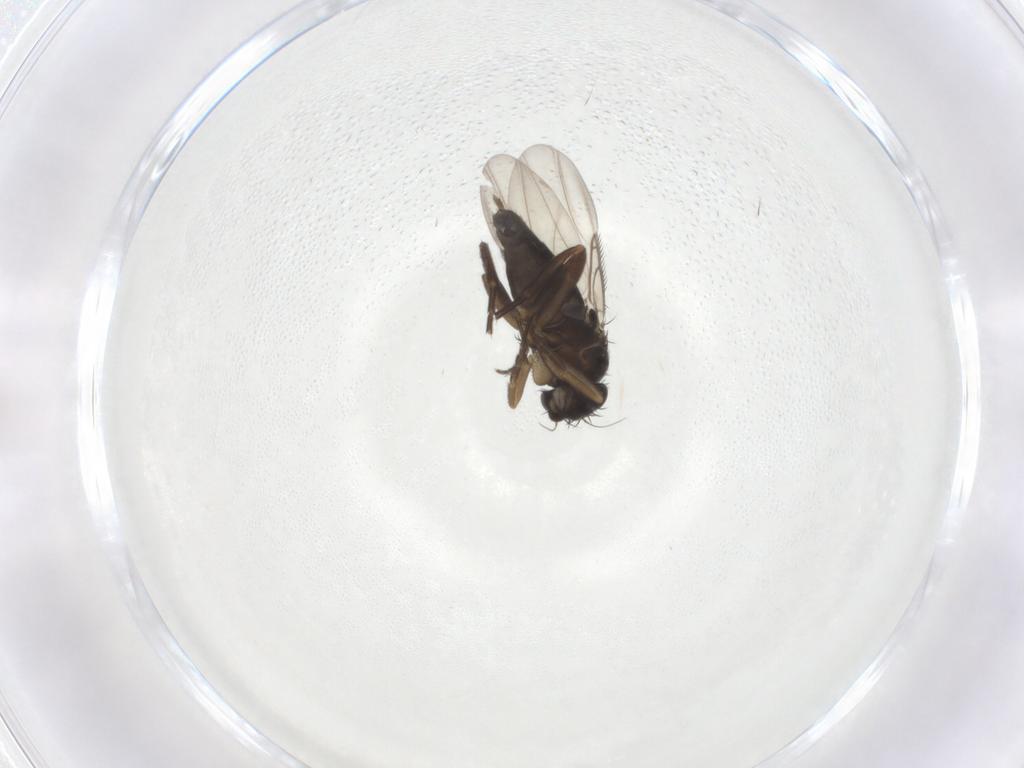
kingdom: Animalia
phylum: Arthropoda
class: Insecta
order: Diptera
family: Phoridae
